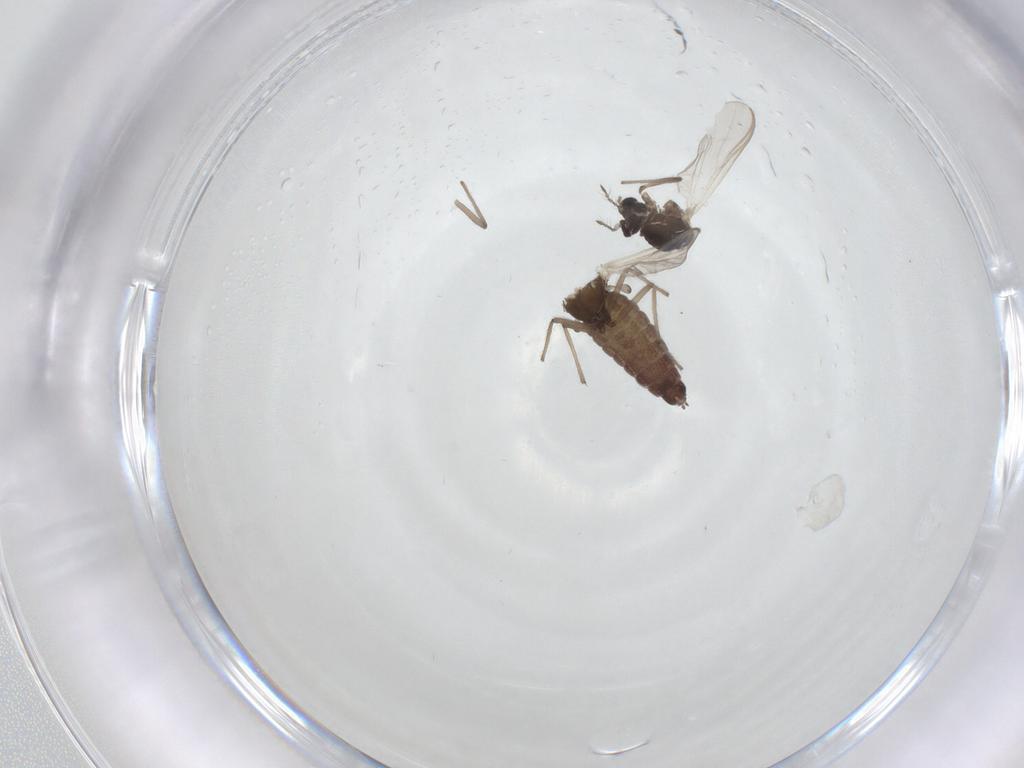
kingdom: Animalia
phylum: Arthropoda
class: Insecta
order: Diptera
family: Chironomidae
